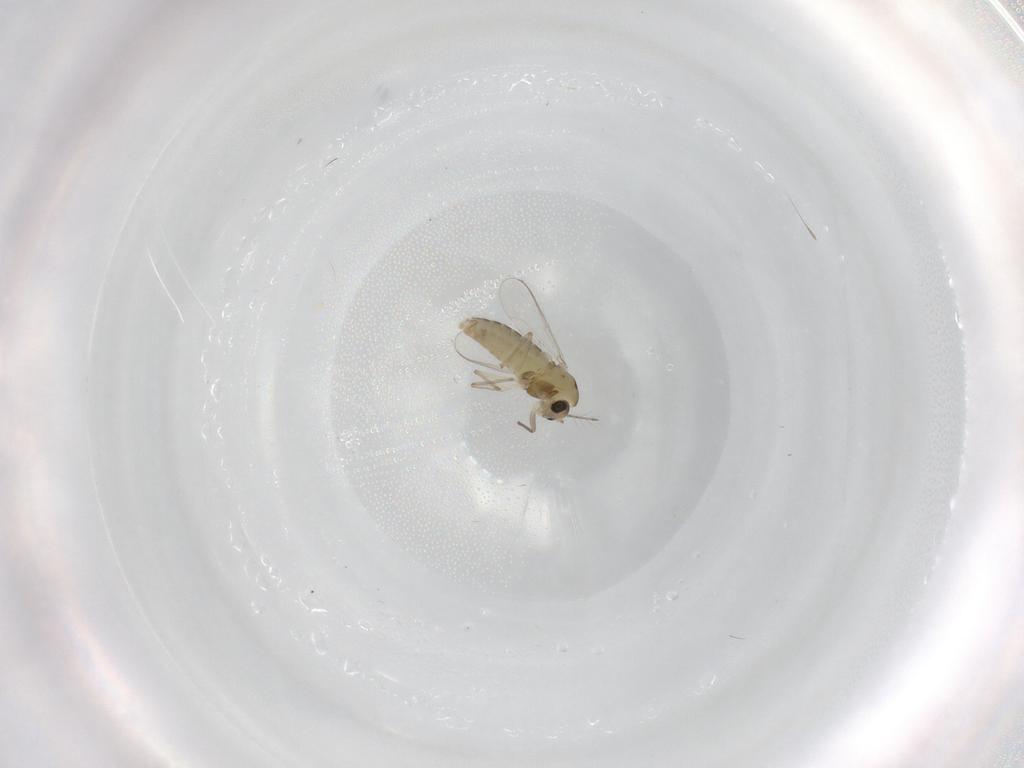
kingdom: Animalia
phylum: Arthropoda
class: Insecta
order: Diptera
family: Chironomidae
